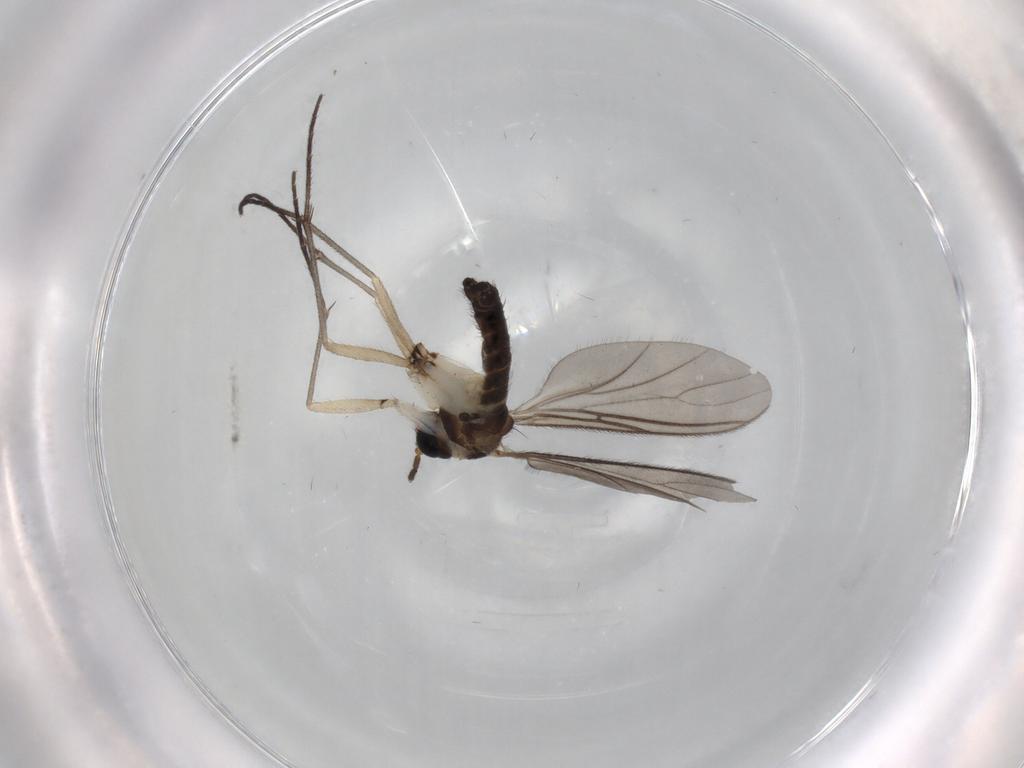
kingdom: Animalia
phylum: Arthropoda
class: Insecta
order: Diptera
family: Sciaridae
